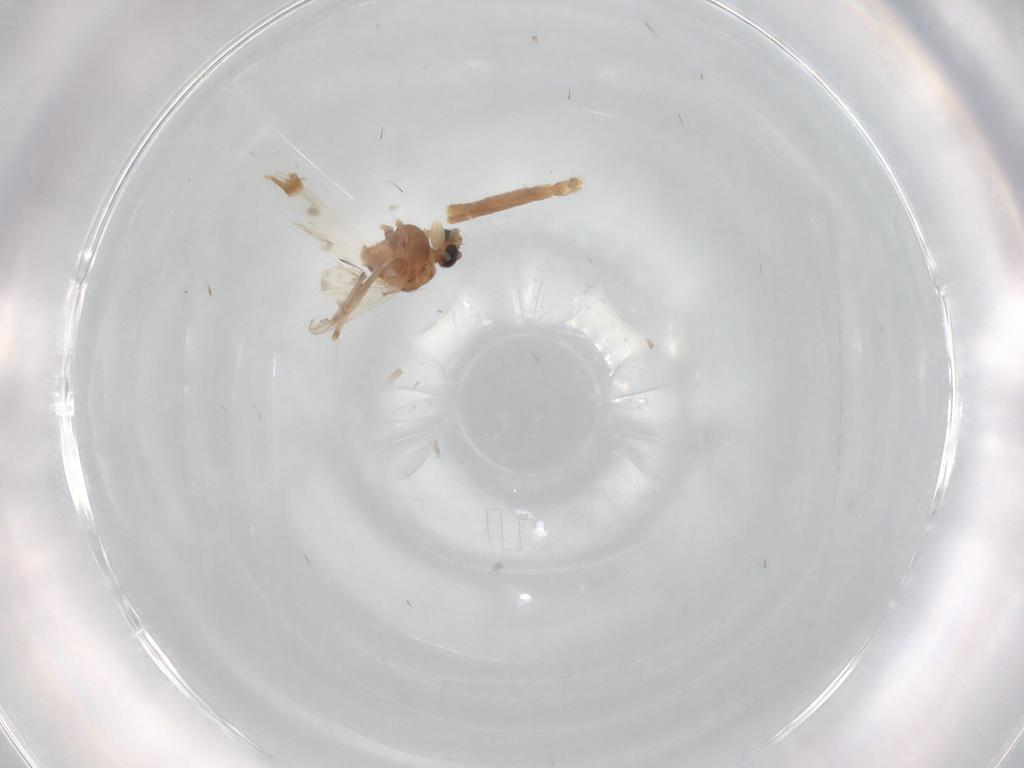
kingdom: Animalia
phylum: Arthropoda
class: Insecta
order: Diptera
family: Chironomidae
